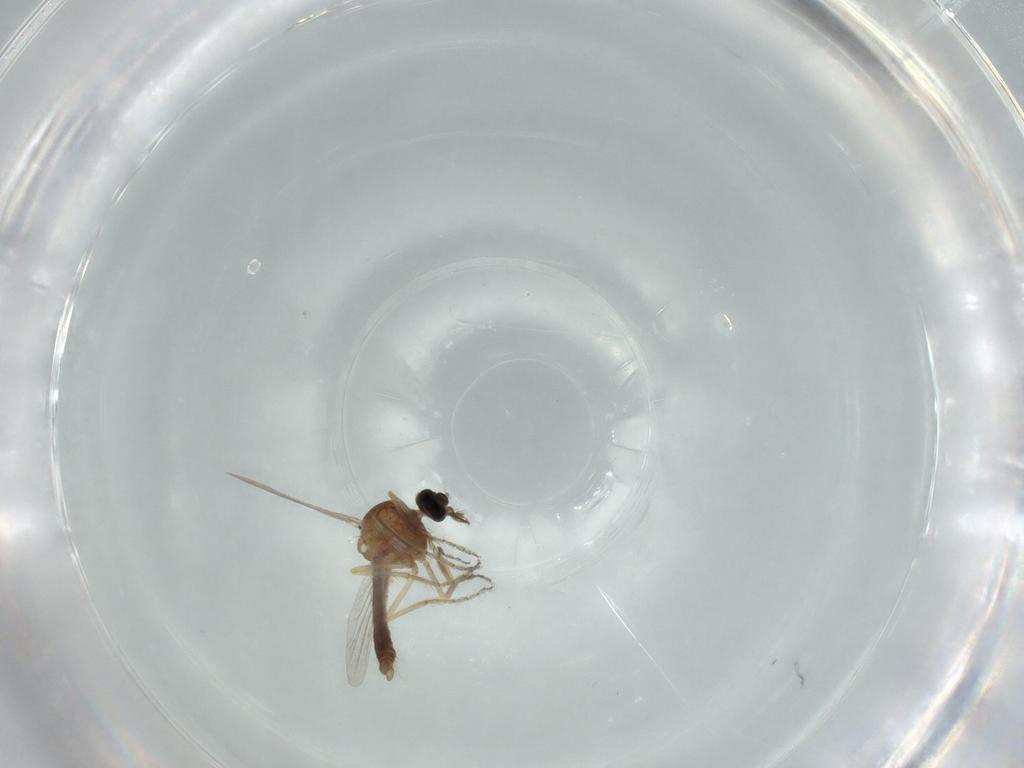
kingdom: Animalia
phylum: Arthropoda
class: Insecta
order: Diptera
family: Ceratopogonidae
